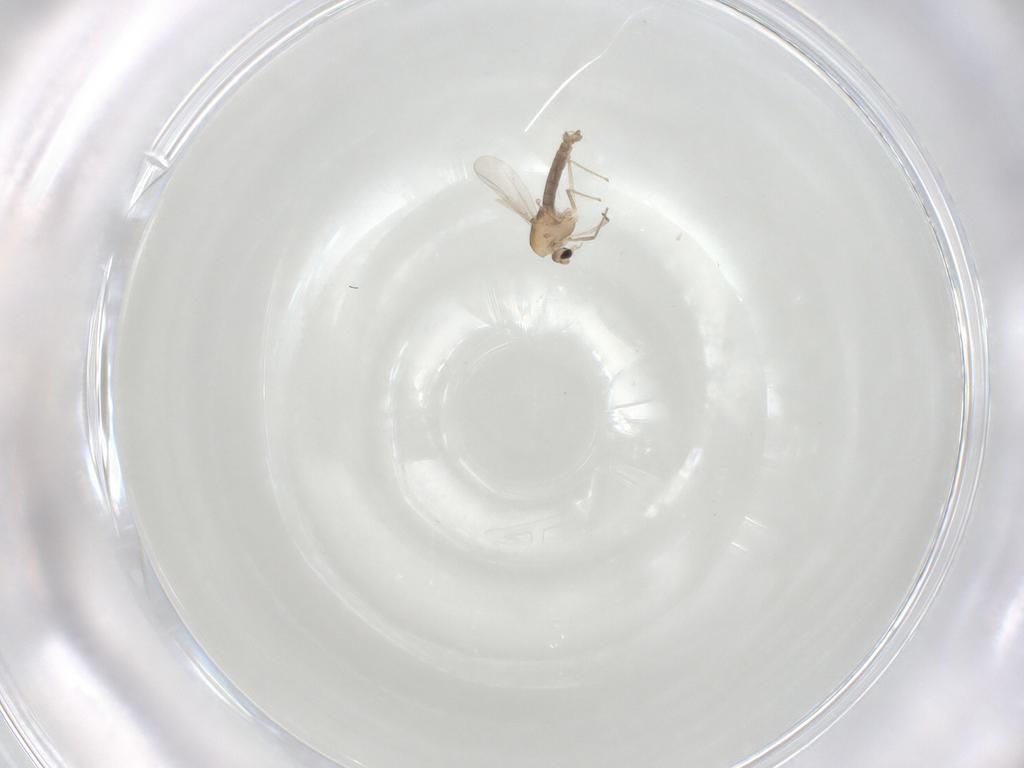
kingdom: Animalia
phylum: Arthropoda
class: Insecta
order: Diptera
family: Chironomidae
